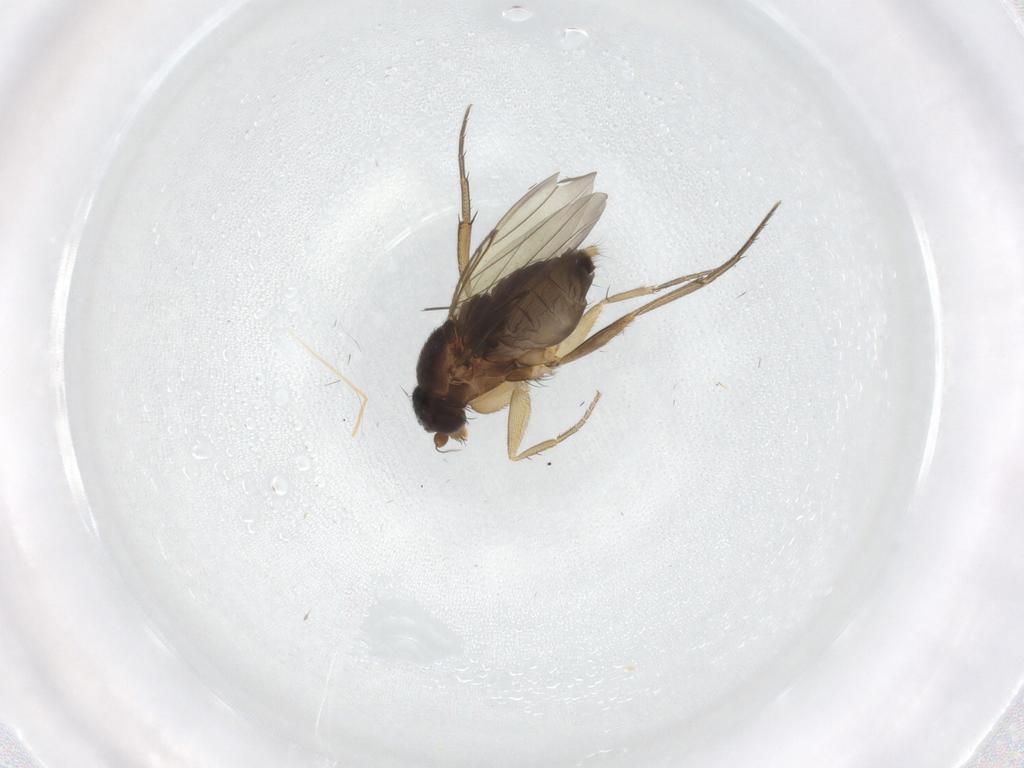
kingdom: Animalia
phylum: Arthropoda
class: Insecta
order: Diptera
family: Phoridae
